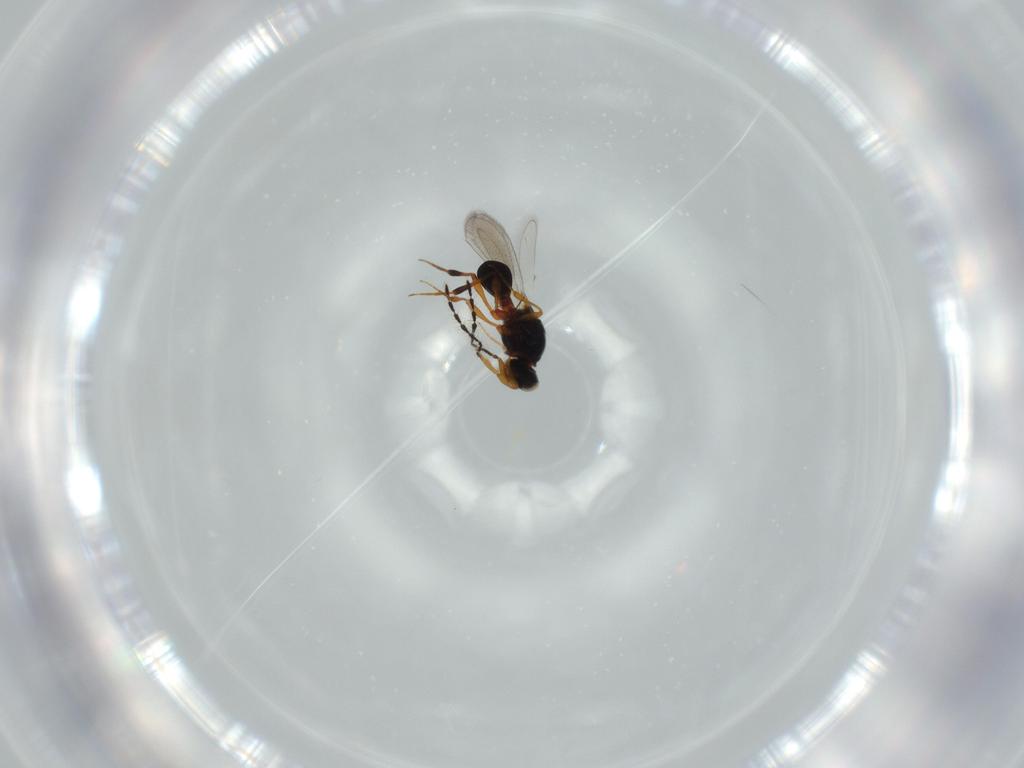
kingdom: Animalia
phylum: Arthropoda
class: Insecta
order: Hymenoptera
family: Platygastridae
